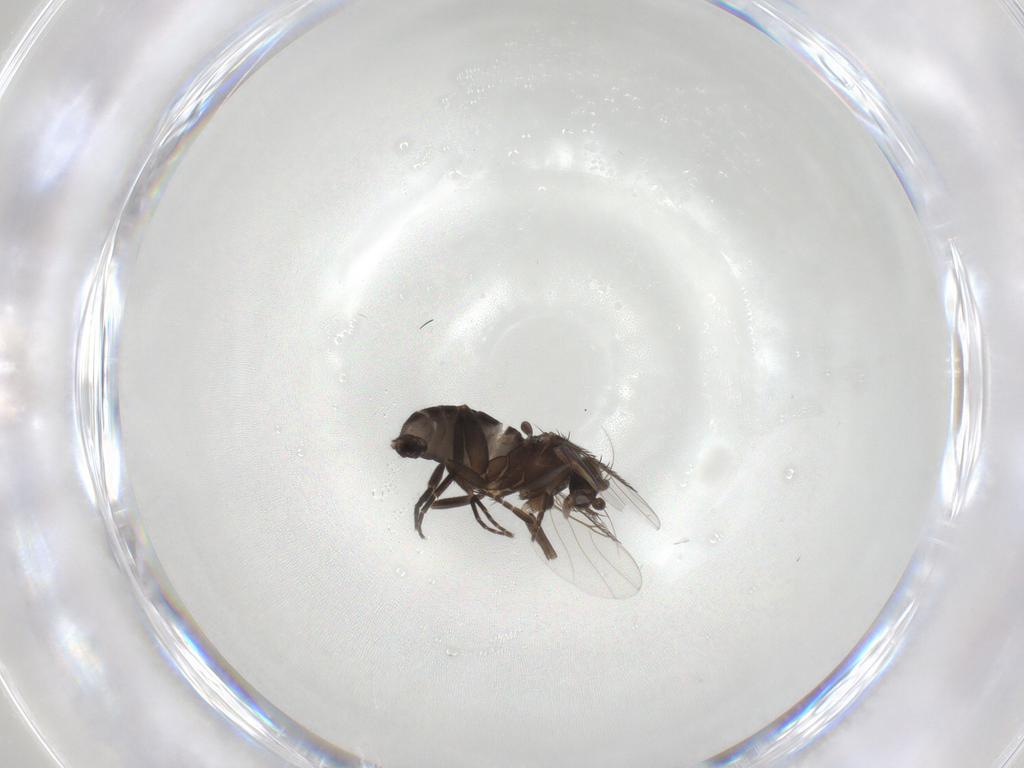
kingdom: Animalia
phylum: Arthropoda
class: Insecta
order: Diptera
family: Phoridae
